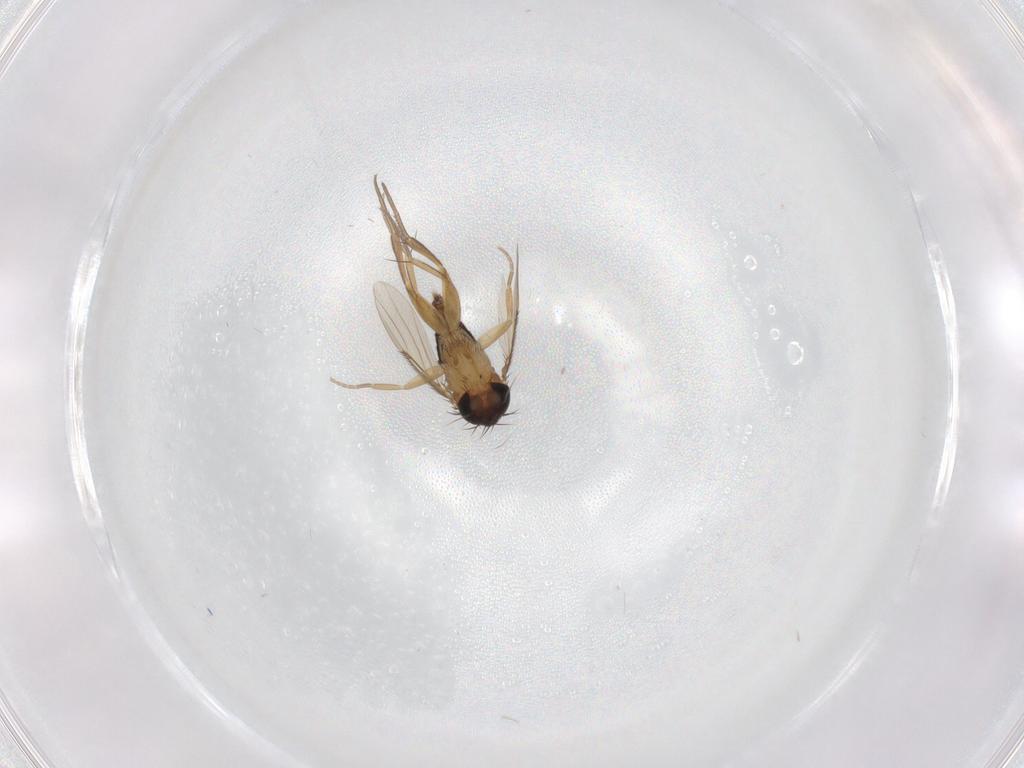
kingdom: Animalia
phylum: Arthropoda
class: Insecta
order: Diptera
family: Phoridae
